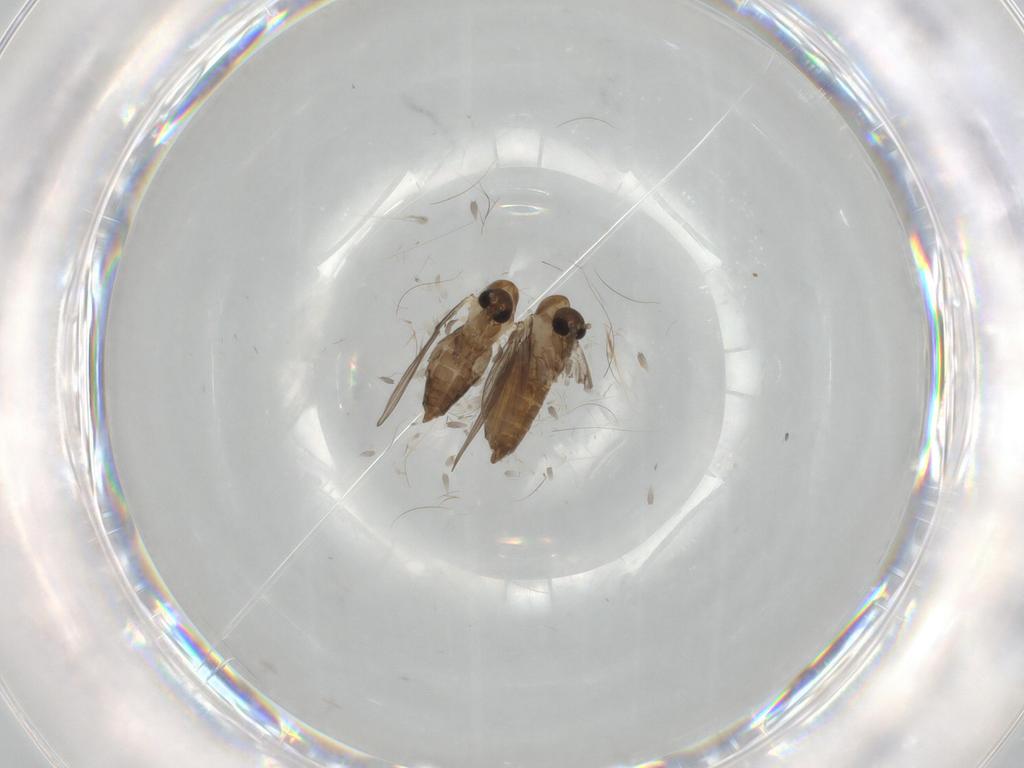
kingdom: Animalia
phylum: Arthropoda
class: Insecta
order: Diptera
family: Psychodidae
